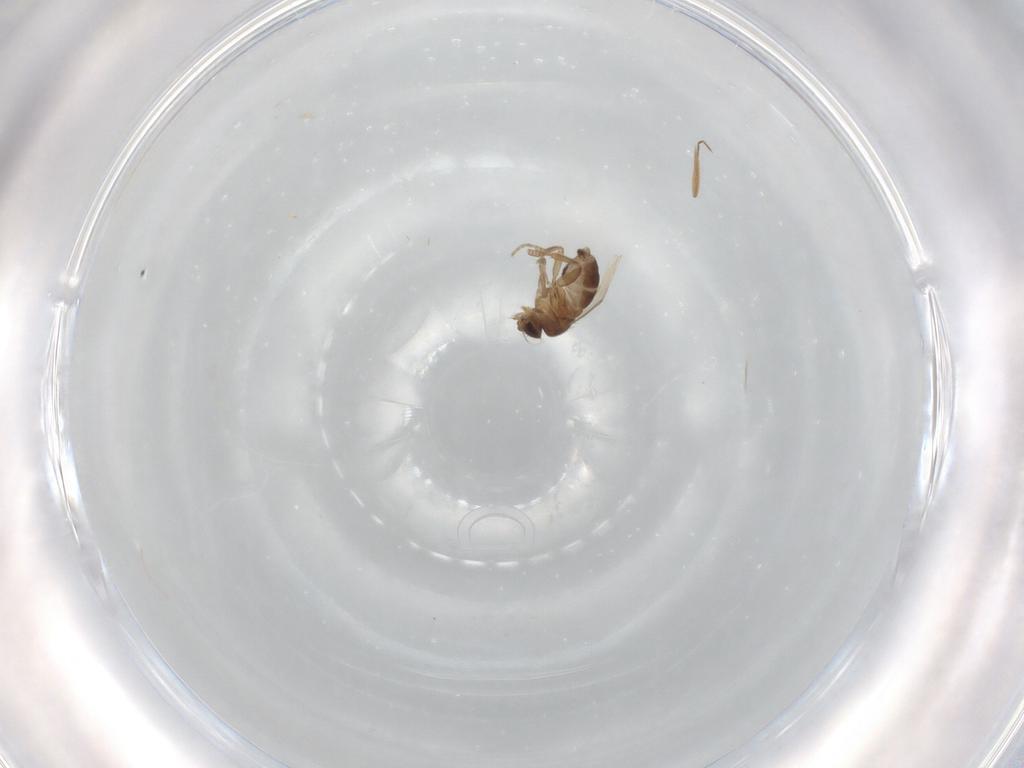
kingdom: Animalia
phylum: Arthropoda
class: Insecta
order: Diptera
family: Phoridae
